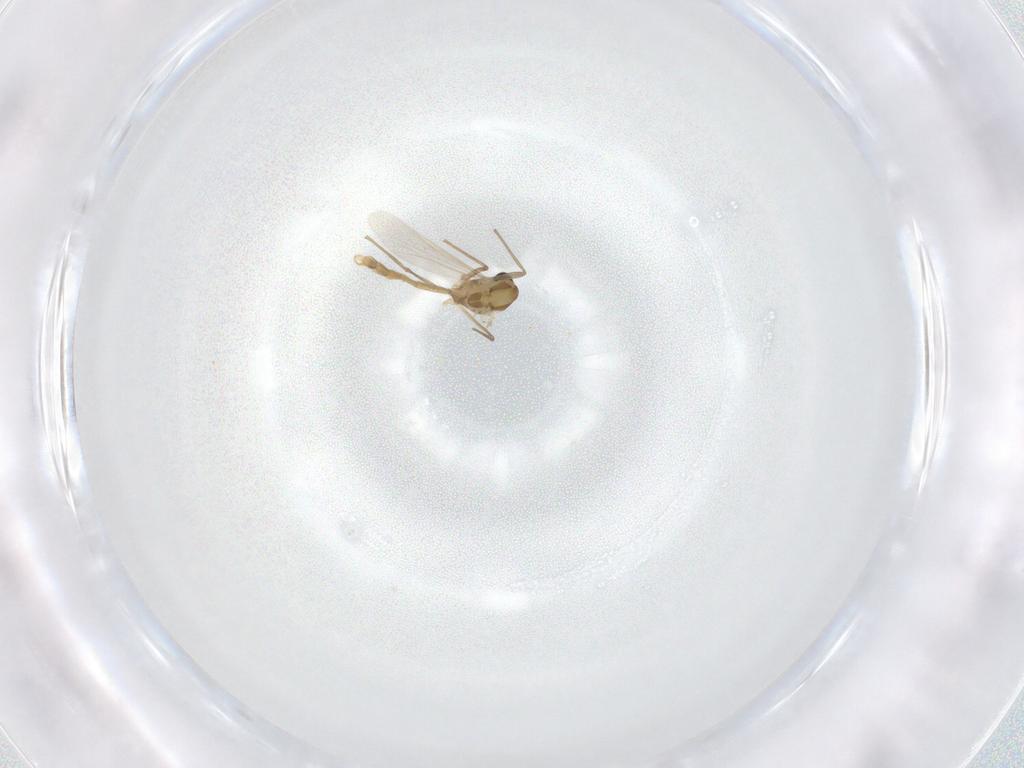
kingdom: Animalia
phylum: Arthropoda
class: Insecta
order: Diptera
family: Chironomidae
